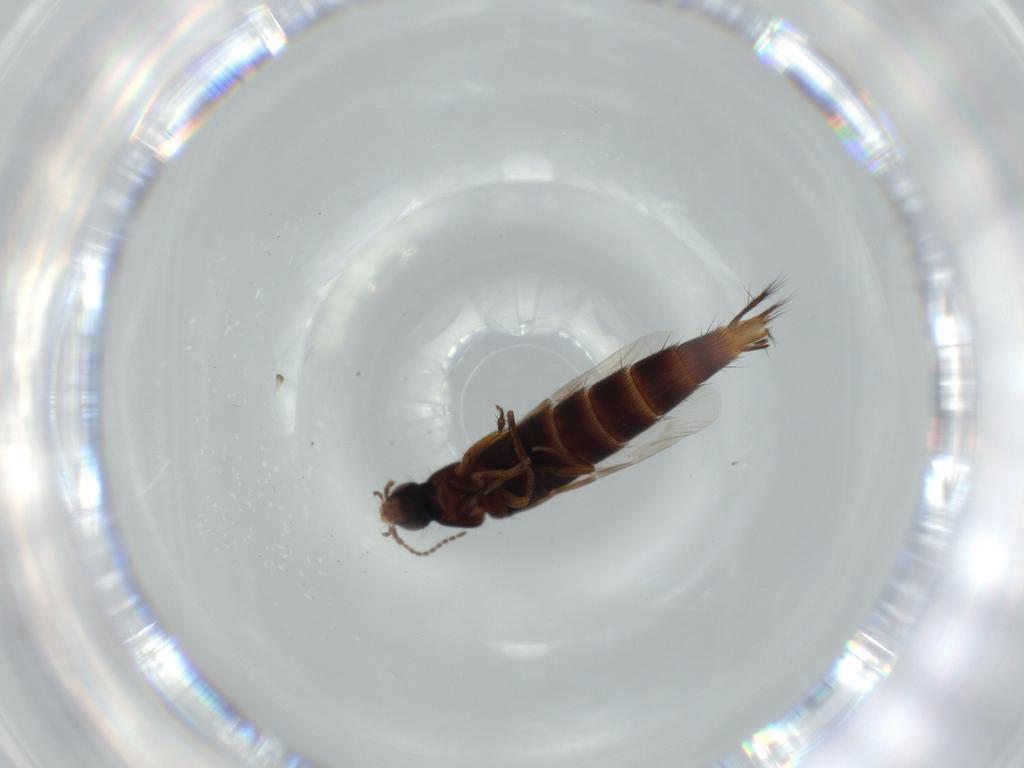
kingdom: Animalia
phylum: Arthropoda
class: Insecta
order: Coleoptera
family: Staphylinidae
